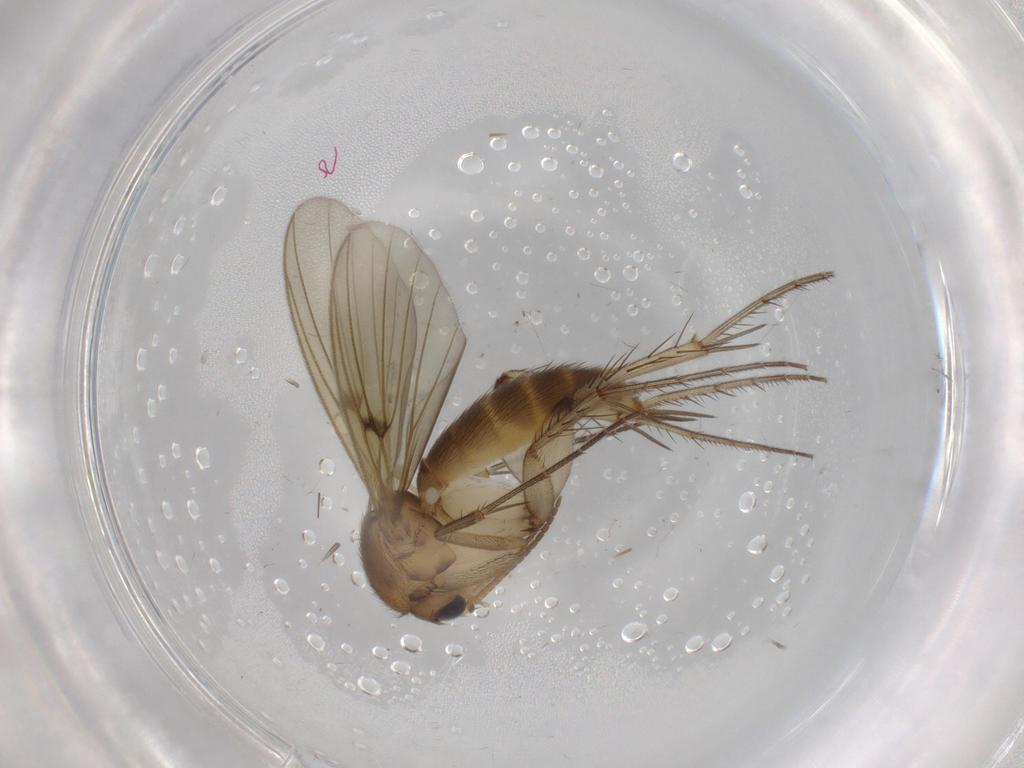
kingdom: Animalia
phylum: Arthropoda
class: Insecta
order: Diptera
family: Mycetophilidae
